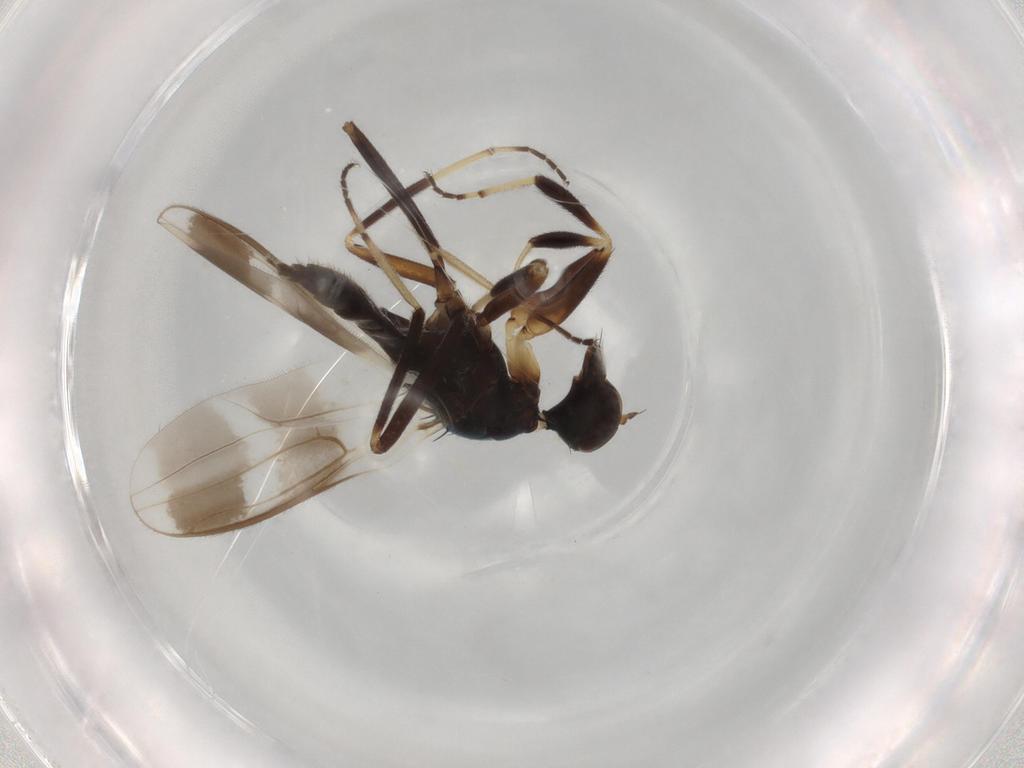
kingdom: Animalia
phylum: Arthropoda
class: Insecta
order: Diptera
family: Hybotidae
